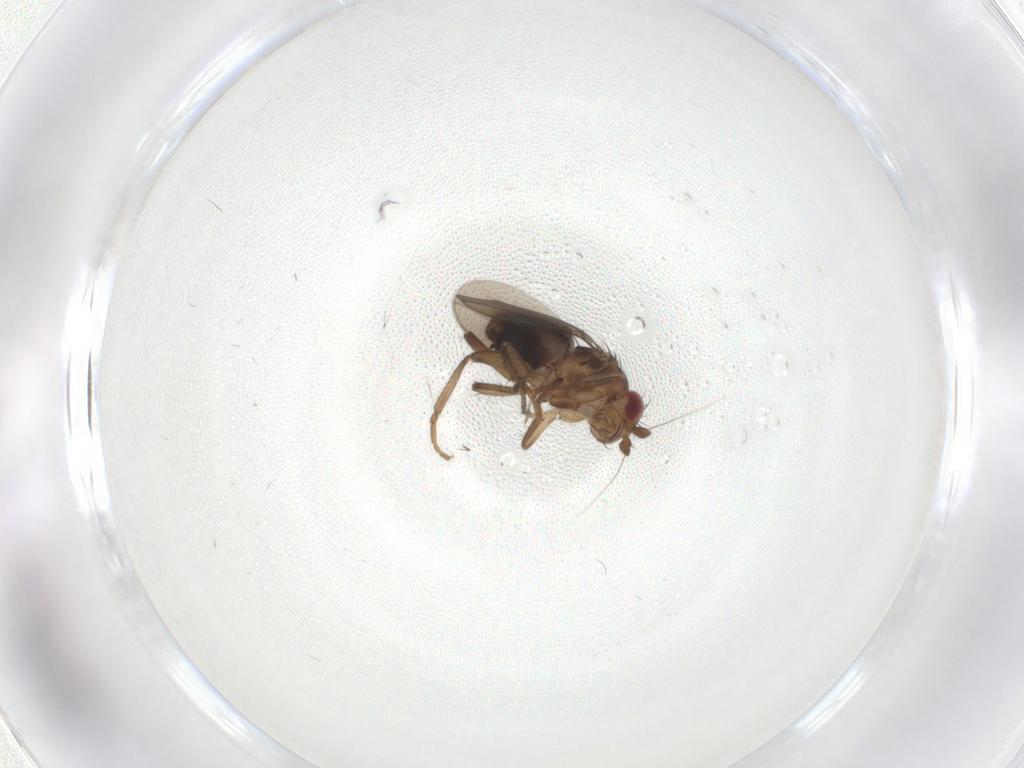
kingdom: Animalia
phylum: Arthropoda
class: Insecta
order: Diptera
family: Sphaeroceridae
